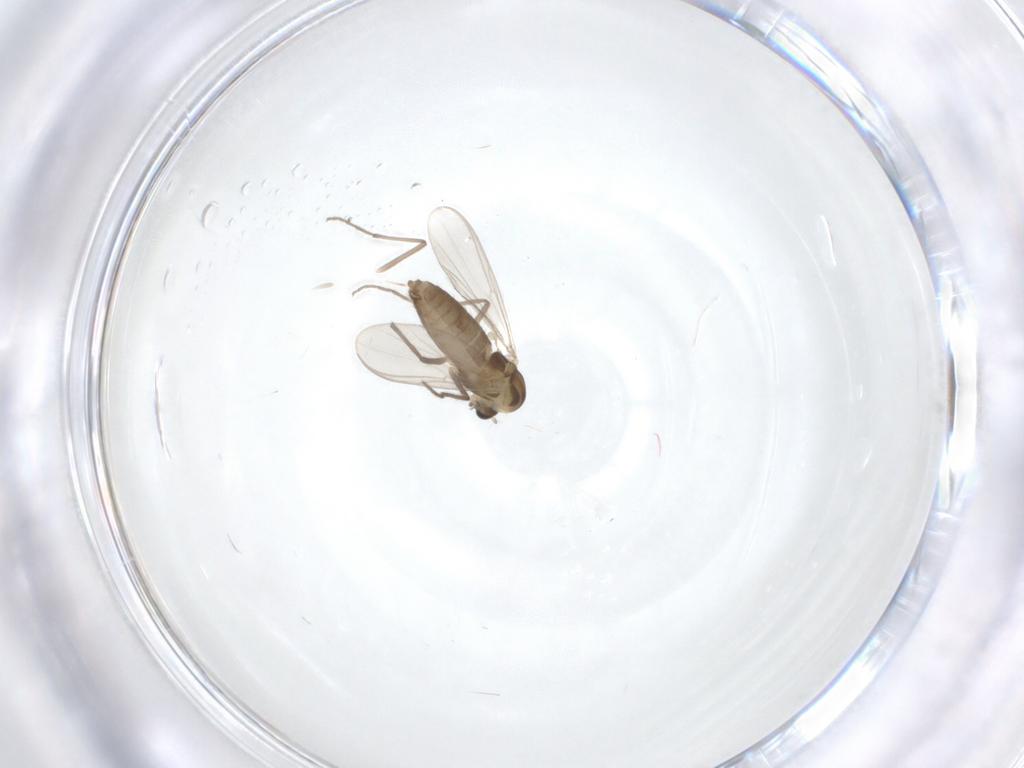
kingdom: Animalia
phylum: Arthropoda
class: Insecta
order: Diptera
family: Chironomidae
